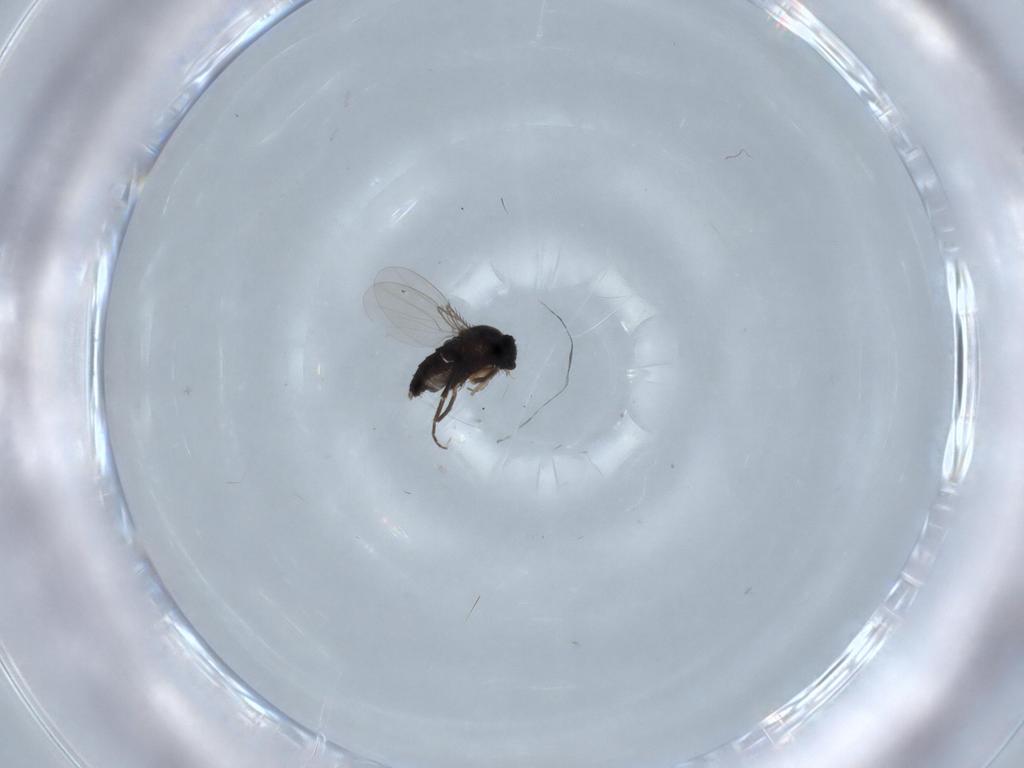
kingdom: Animalia
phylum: Arthropoda
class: Insecta
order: Diptera
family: Phoridae
